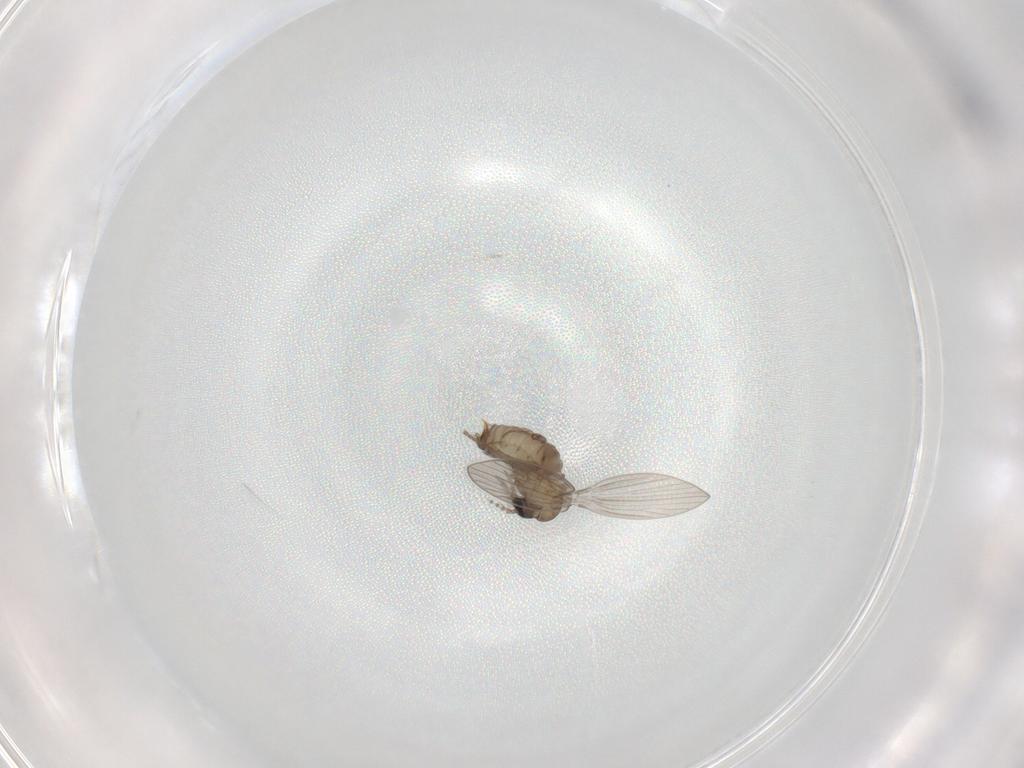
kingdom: Animalia
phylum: Arthropoda
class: Insecta
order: Diptera
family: Psychodidae
